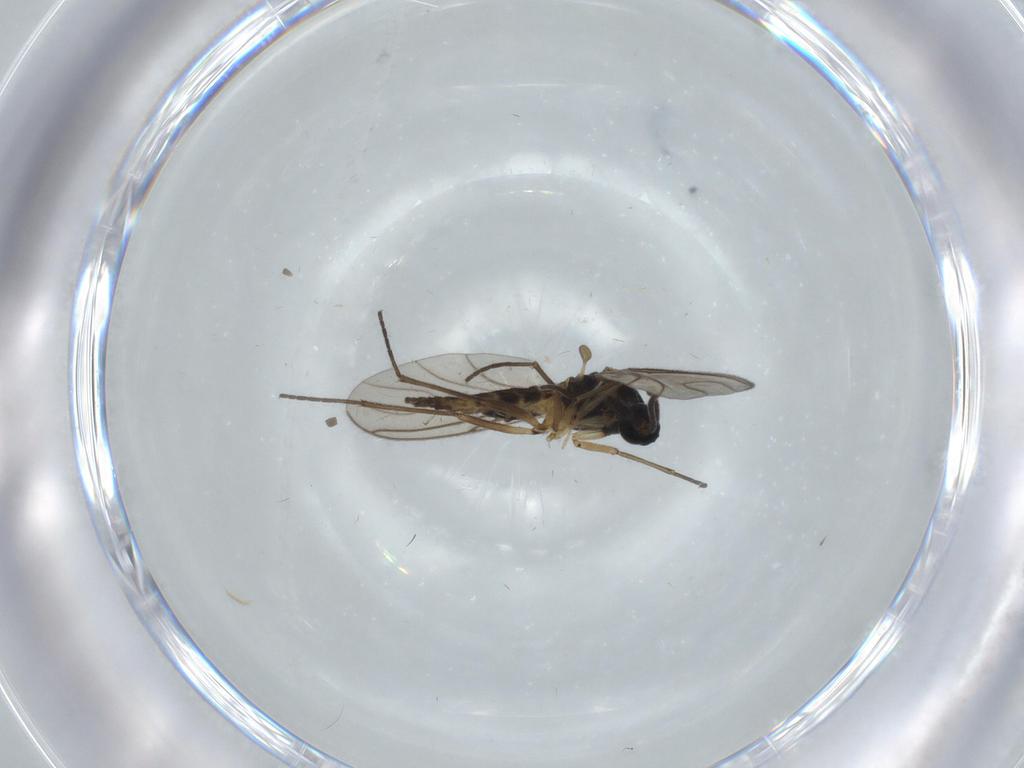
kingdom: Animalia
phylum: Arthropoda
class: Insecta
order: Diptera
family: Sciaridae
